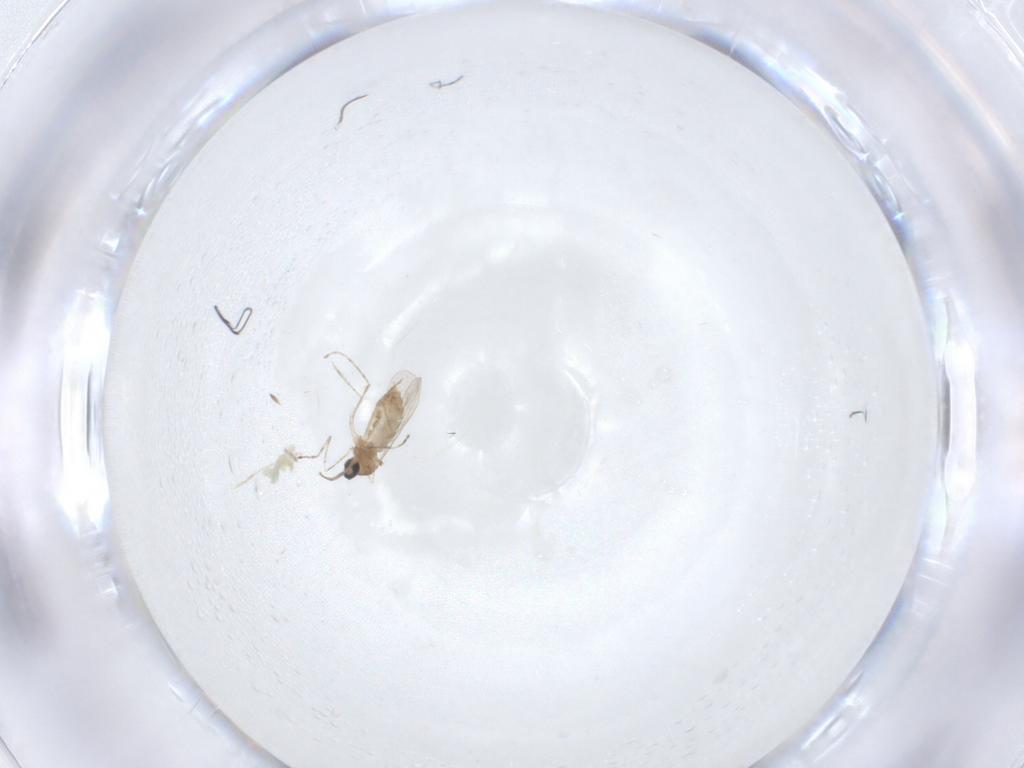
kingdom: Animalia
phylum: Arthropoda
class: Insecta
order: Diptera
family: Cecidomyiidae
